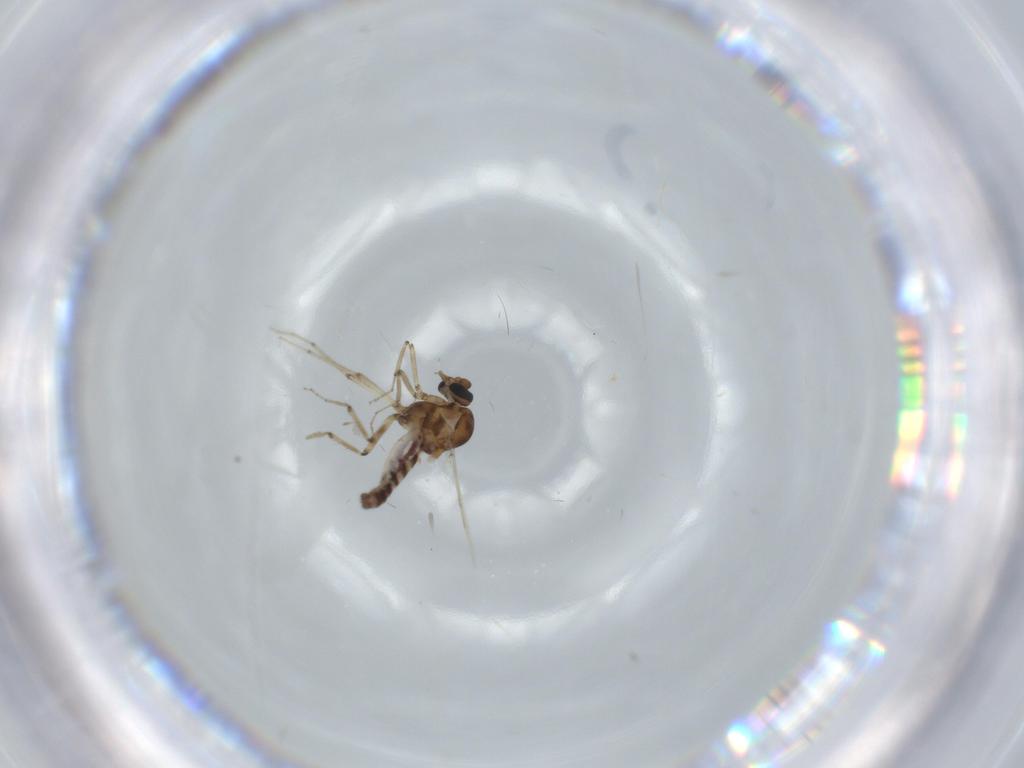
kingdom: Animalia
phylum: Arthropoda
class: Insecta
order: Diptera
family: Ceratopogonidae
